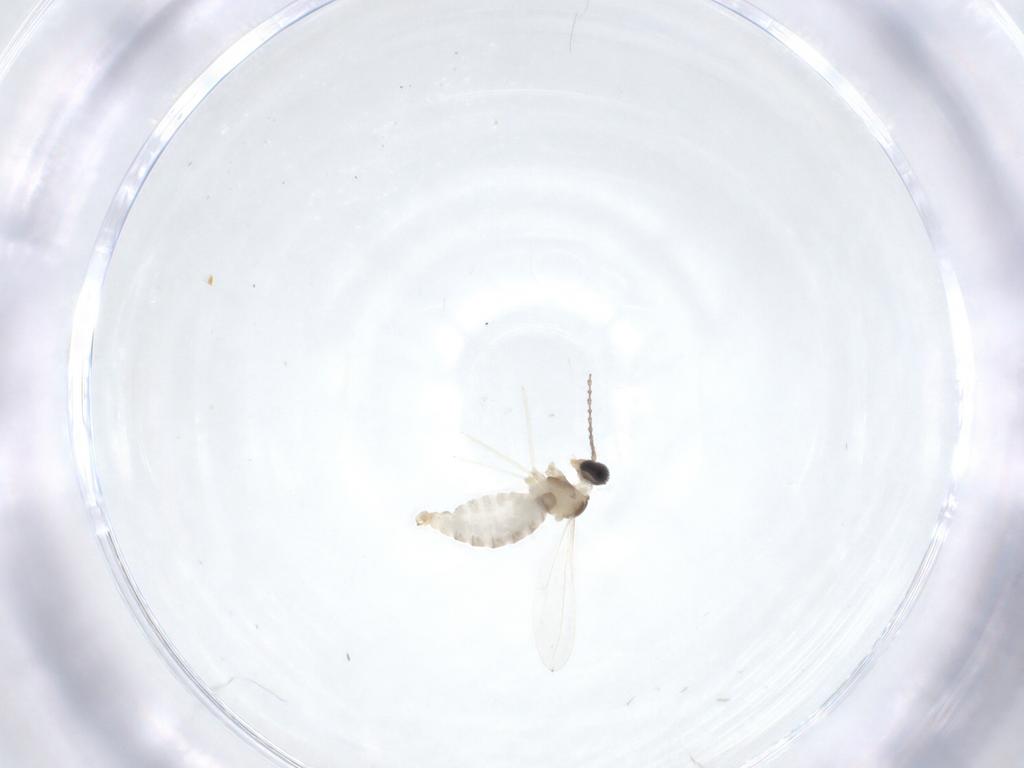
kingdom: Animalia
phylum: Arthropoda
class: Insecta
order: Diptera
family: Cecidomyiidae
